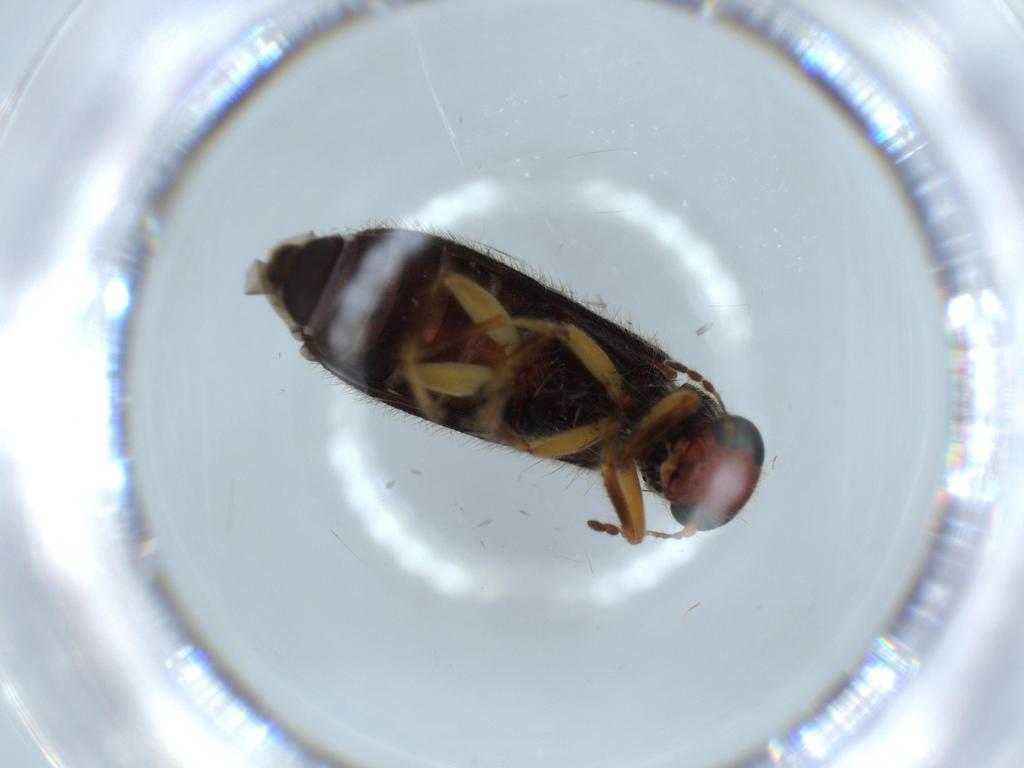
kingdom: Animalia
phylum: Arthropoda
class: Insecta
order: Coleoptera
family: Cleridae
